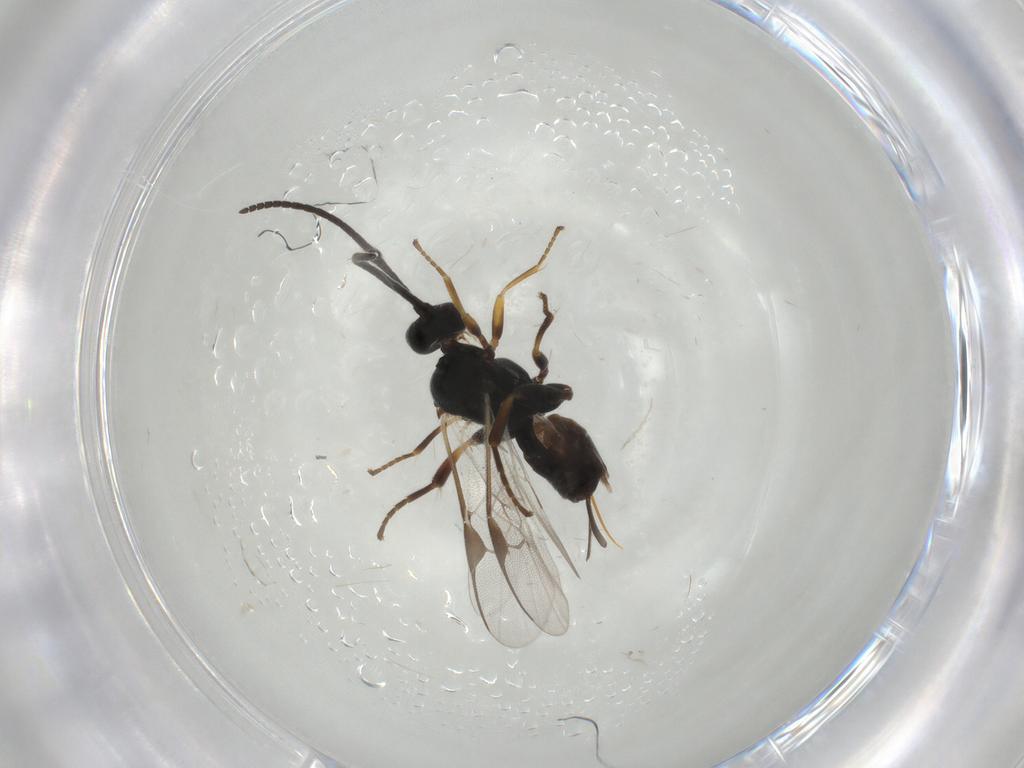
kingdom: Animalia
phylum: Arthropoda
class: Insecta
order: Hymenoptera
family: Braconidae
